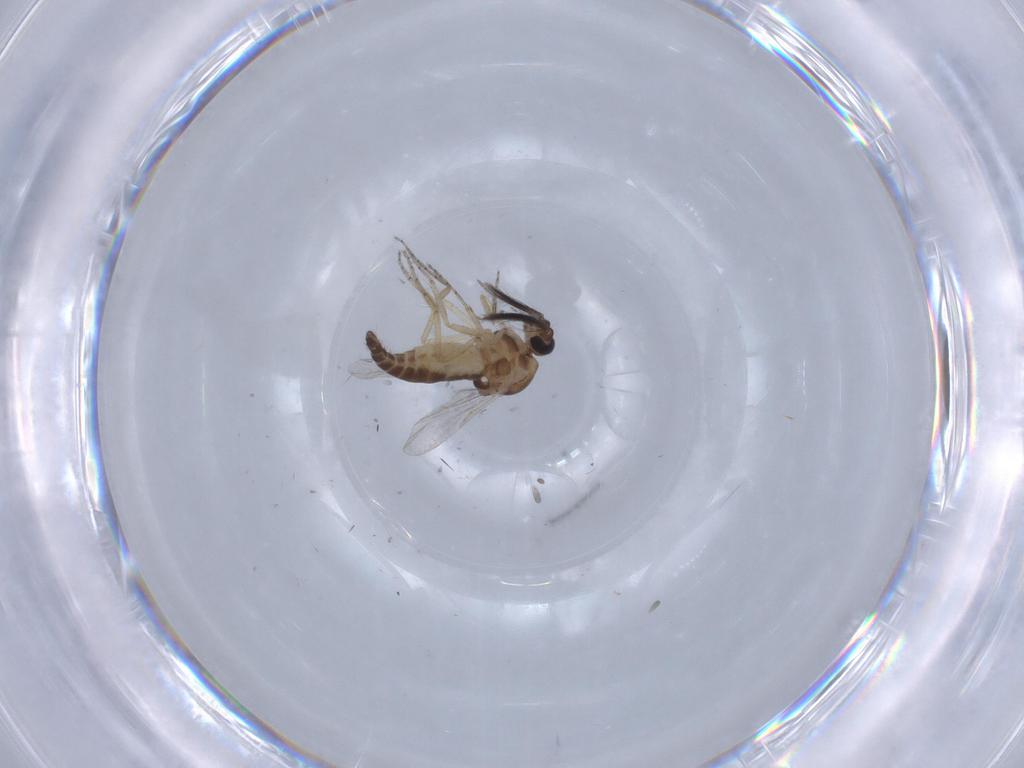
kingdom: Animalia
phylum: Arthropoda
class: Insecta
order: Diptera
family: Ceratopogonidae
